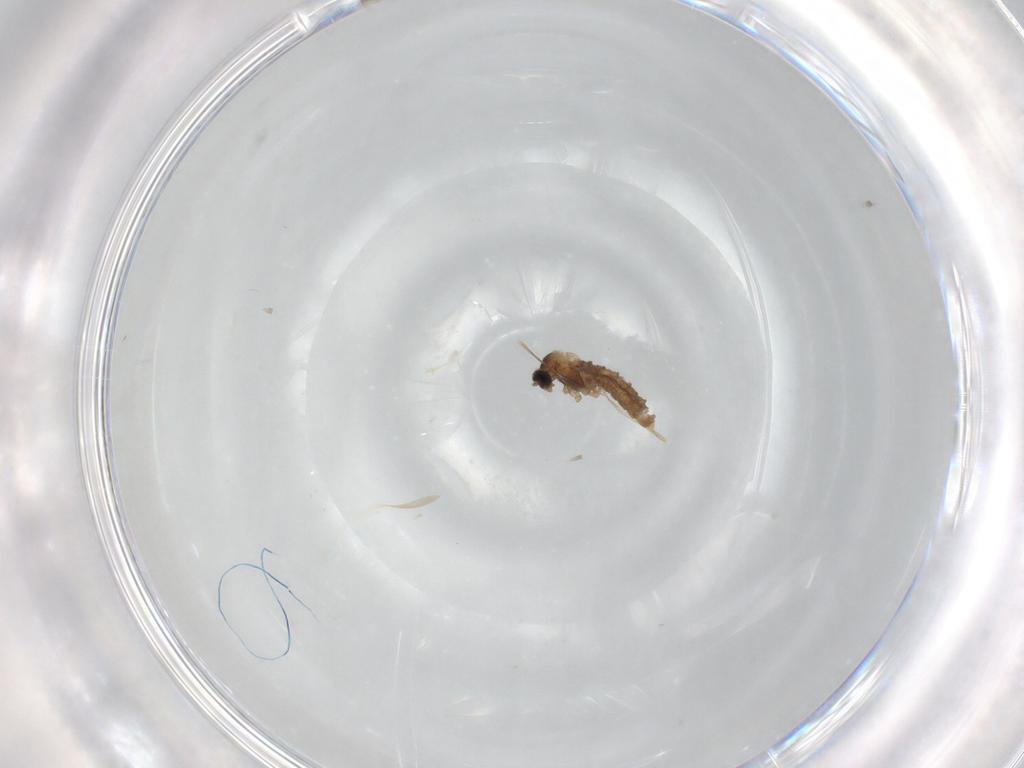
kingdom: Animalia
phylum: Arthropoda
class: Insecta
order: Diptera
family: Cecidomyiidae
